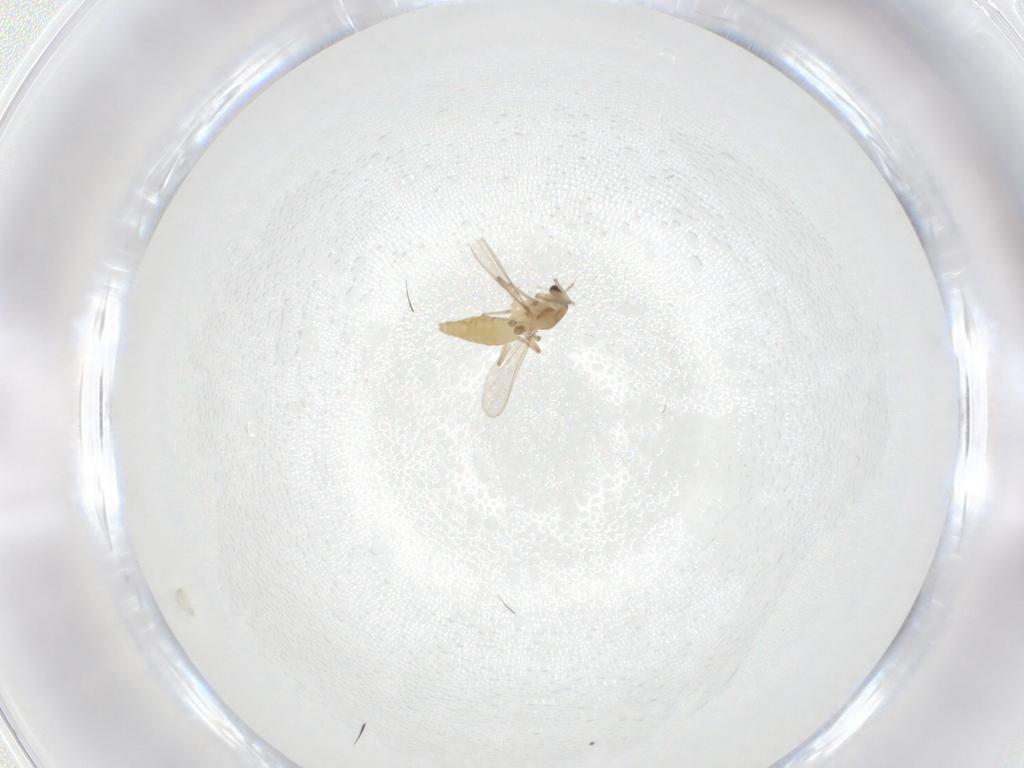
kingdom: Animalia
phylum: Arthropoda
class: Insecta
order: Diptera
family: Chironomidae
